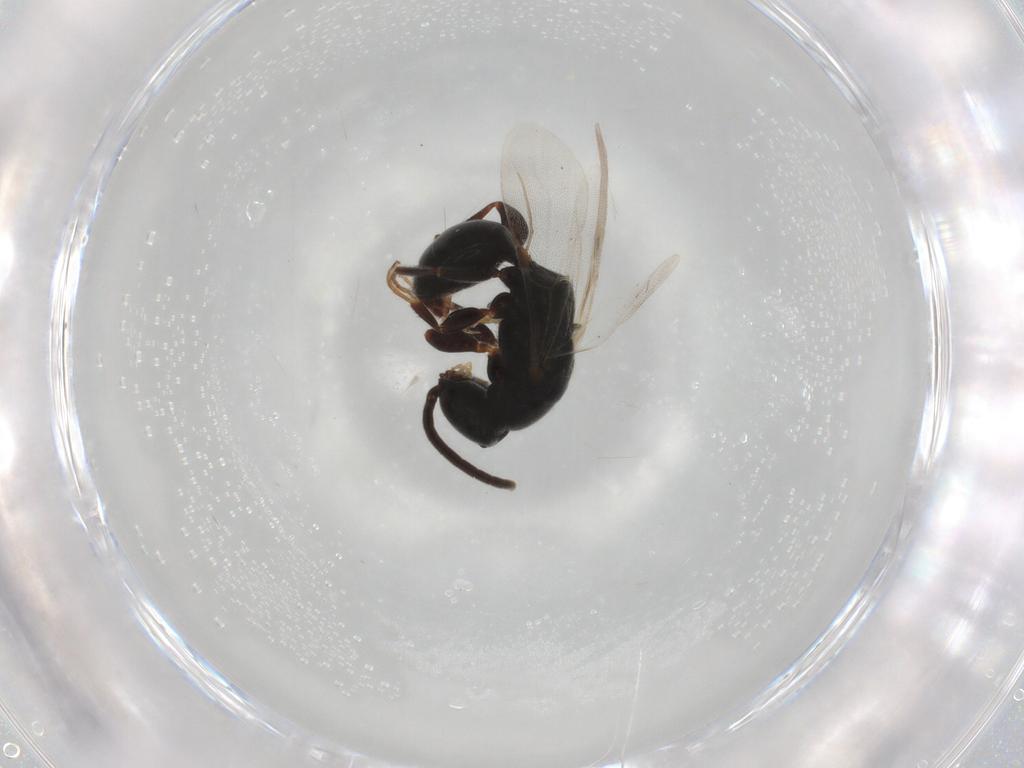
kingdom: Animalia
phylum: Arthropoda
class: Insecta
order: Hymenoptera
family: Bethylidae
